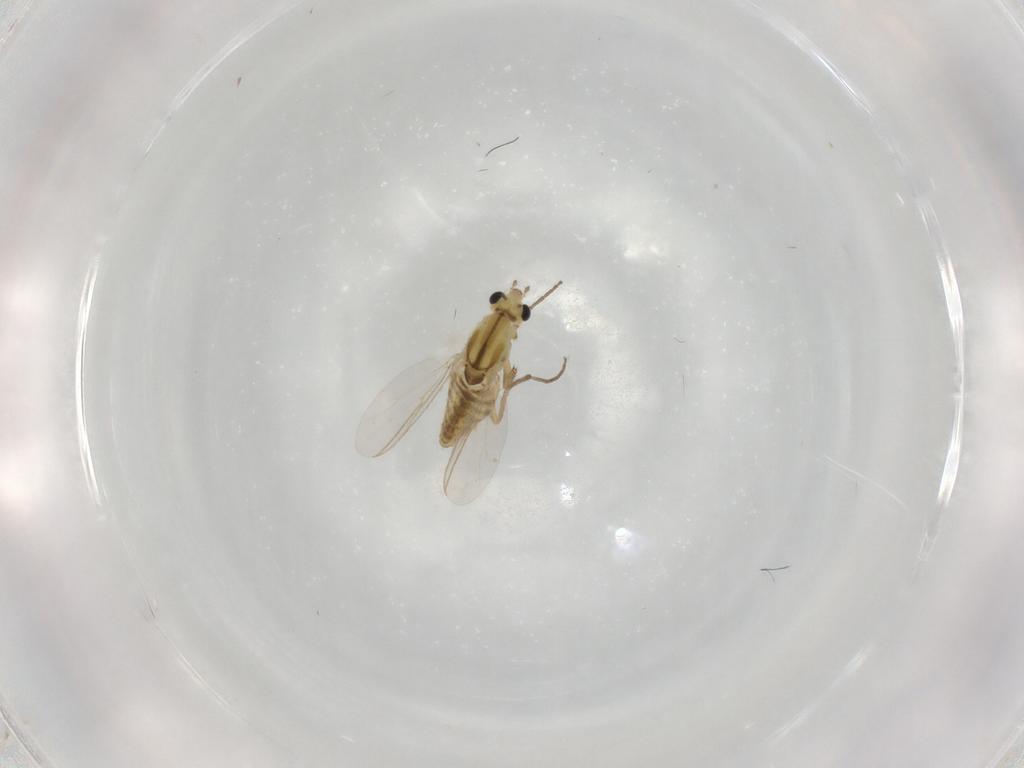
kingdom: Animalia
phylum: Arthropoda
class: Insecta
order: Diptera
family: Chironomidae
